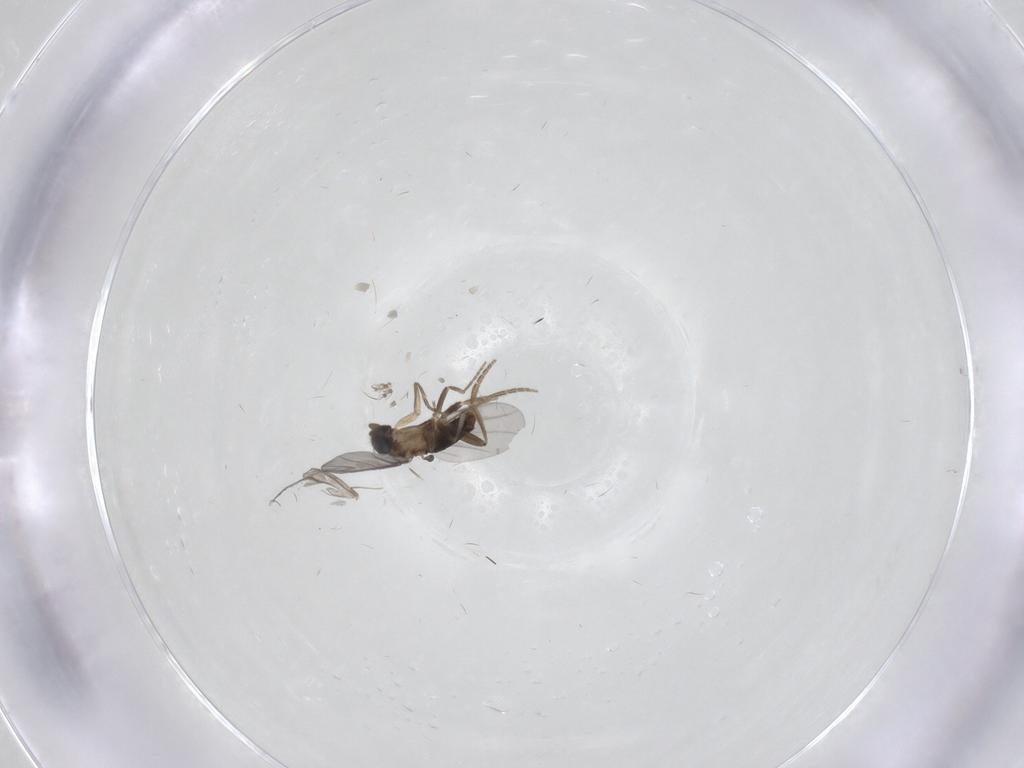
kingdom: Animalia
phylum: Arthropoda
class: Insecta
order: Diptera
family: Cecidomyiidae
